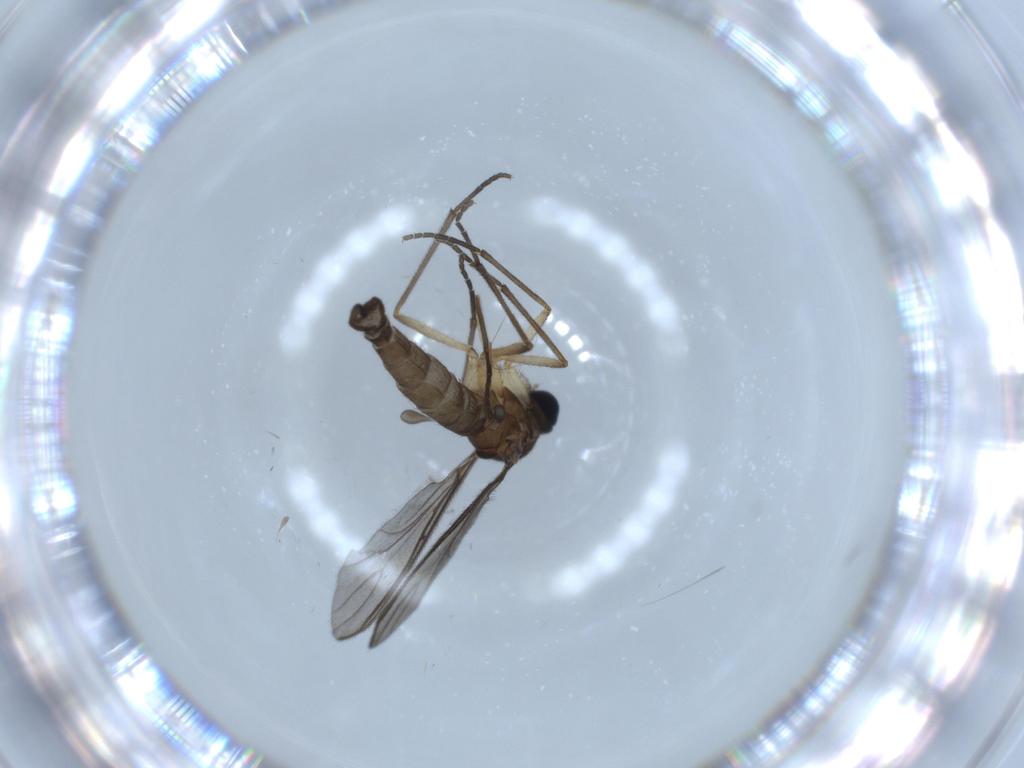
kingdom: Animalia
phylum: Arthropoda
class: Insecta
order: Diptera
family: Sciaridae
